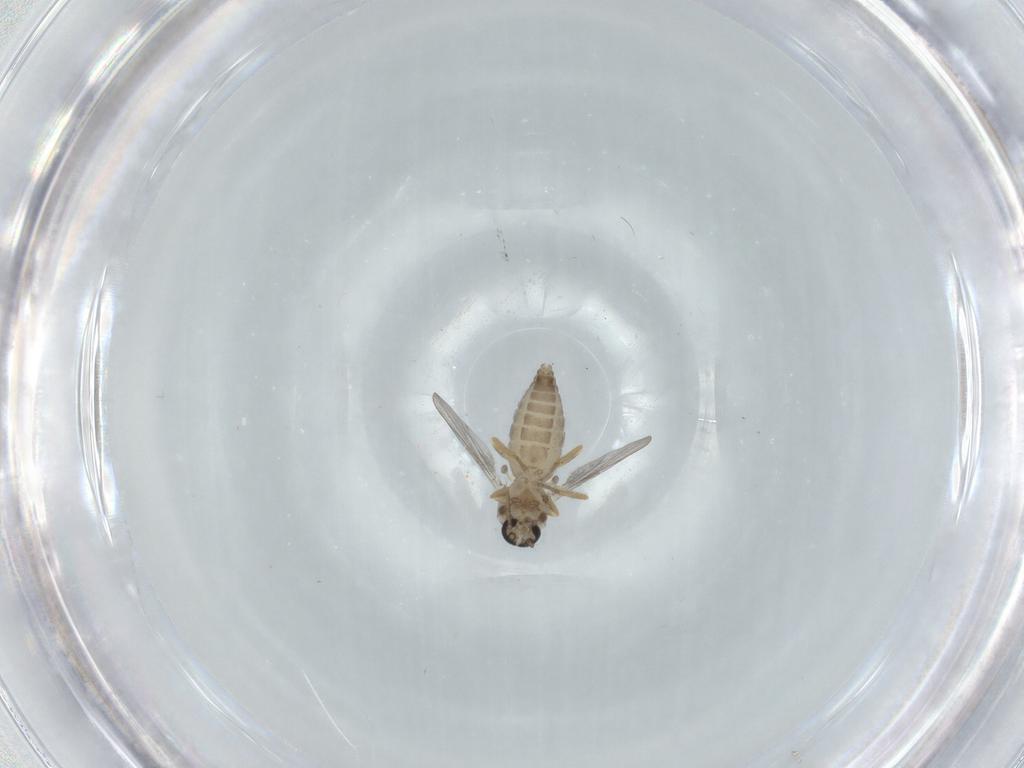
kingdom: Animalia
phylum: Arthropoda
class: Insecta
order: Diptera
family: Ceratopogonidae
